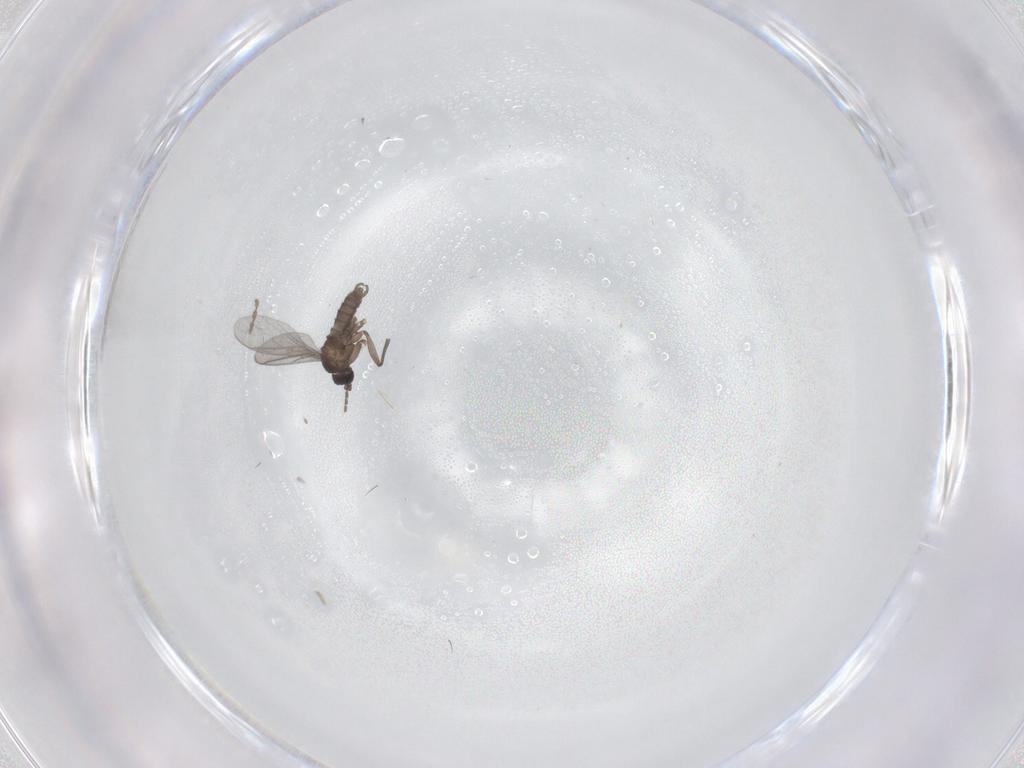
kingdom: Animalia
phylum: Arthropoda
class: Insecta
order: Diptera
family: Sciaridae
